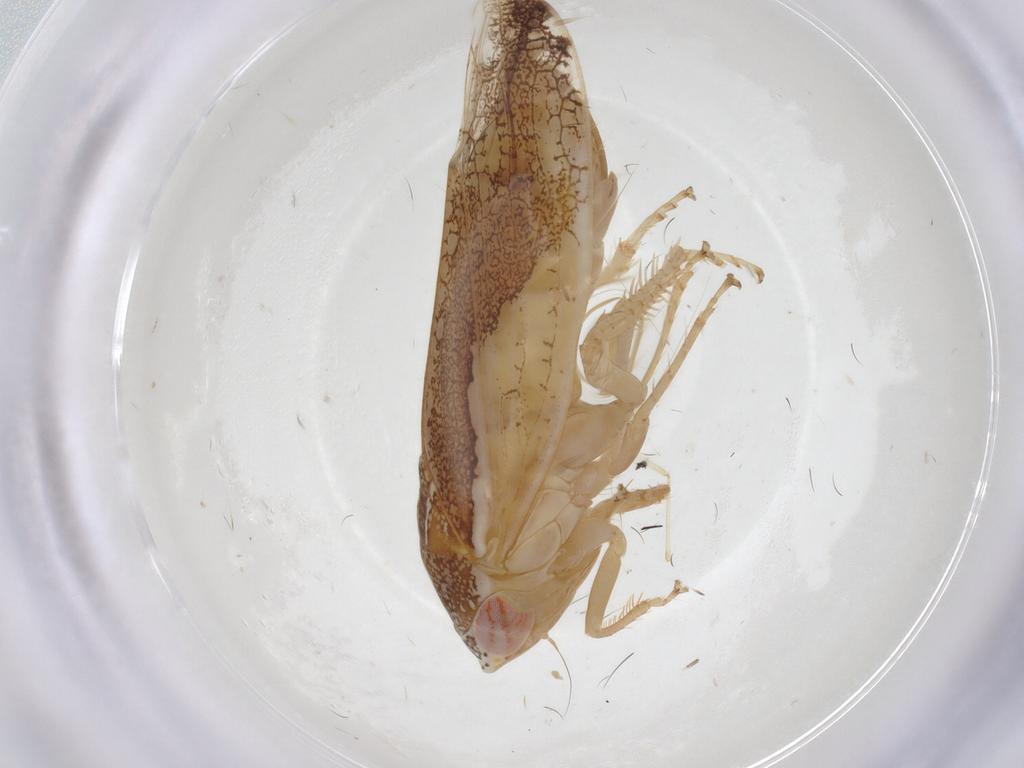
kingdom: Animalia
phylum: Arthropoda
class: Insecta
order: Hemiptera
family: Cicadellidae
